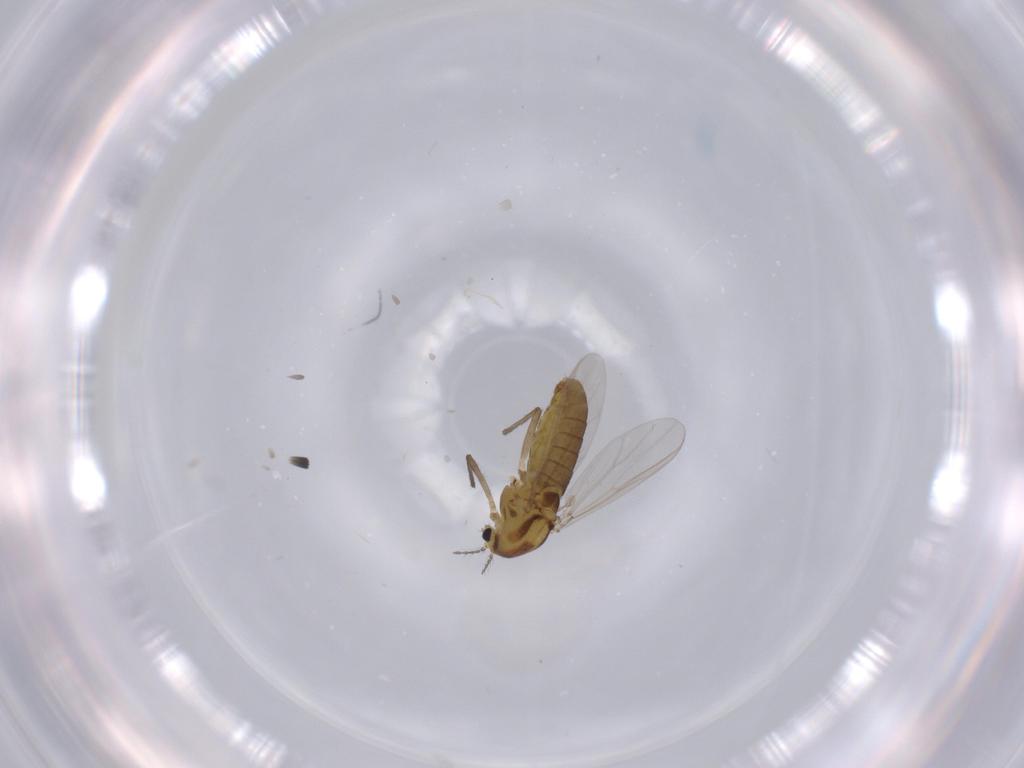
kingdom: Animalia
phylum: Arthropoda
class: Insecta
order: Diptera
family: Chironomidae
